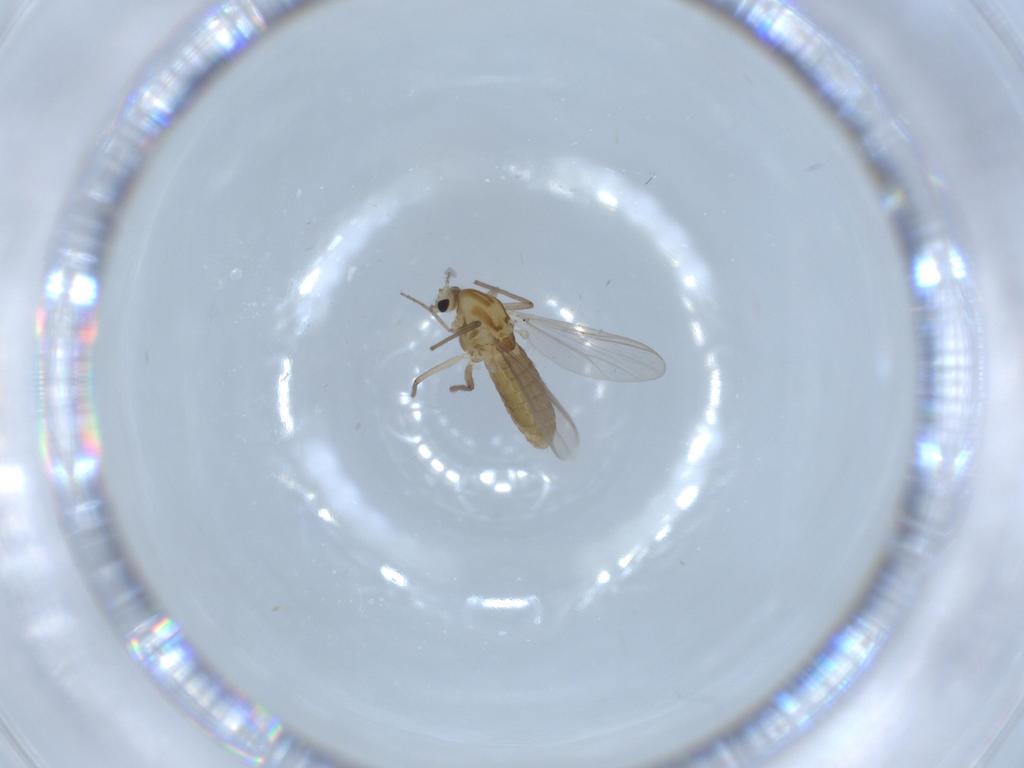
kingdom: Animalia
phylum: Arthropoda
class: Insecta
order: Diptera
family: Chironomidae
